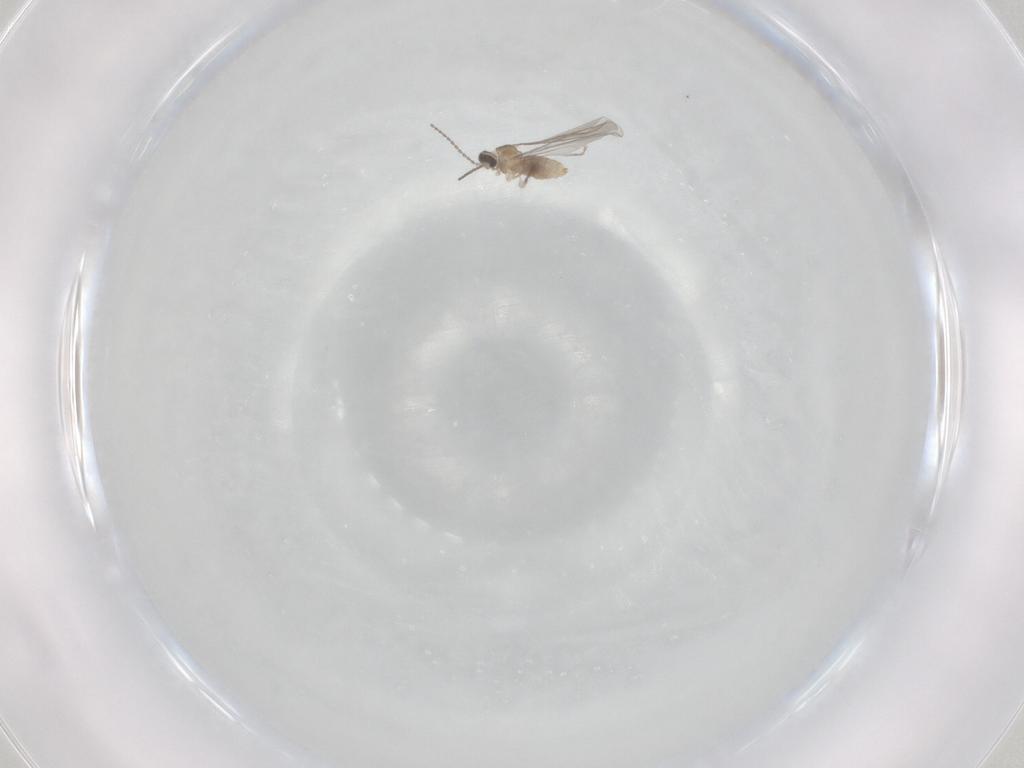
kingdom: Animalia
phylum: Arthropoda
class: Insecta
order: Diptera
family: Cecidomyiidae
